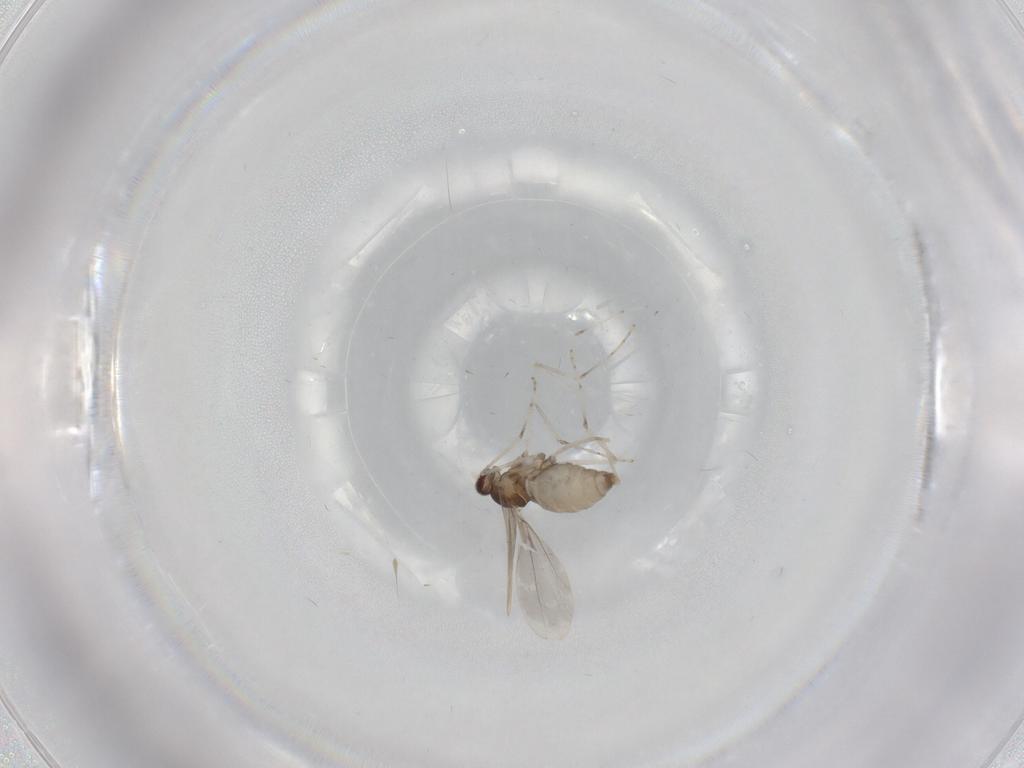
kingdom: Animalia
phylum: Arthropoda
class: Insecta
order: Diptera
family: Cecidomyiidae
